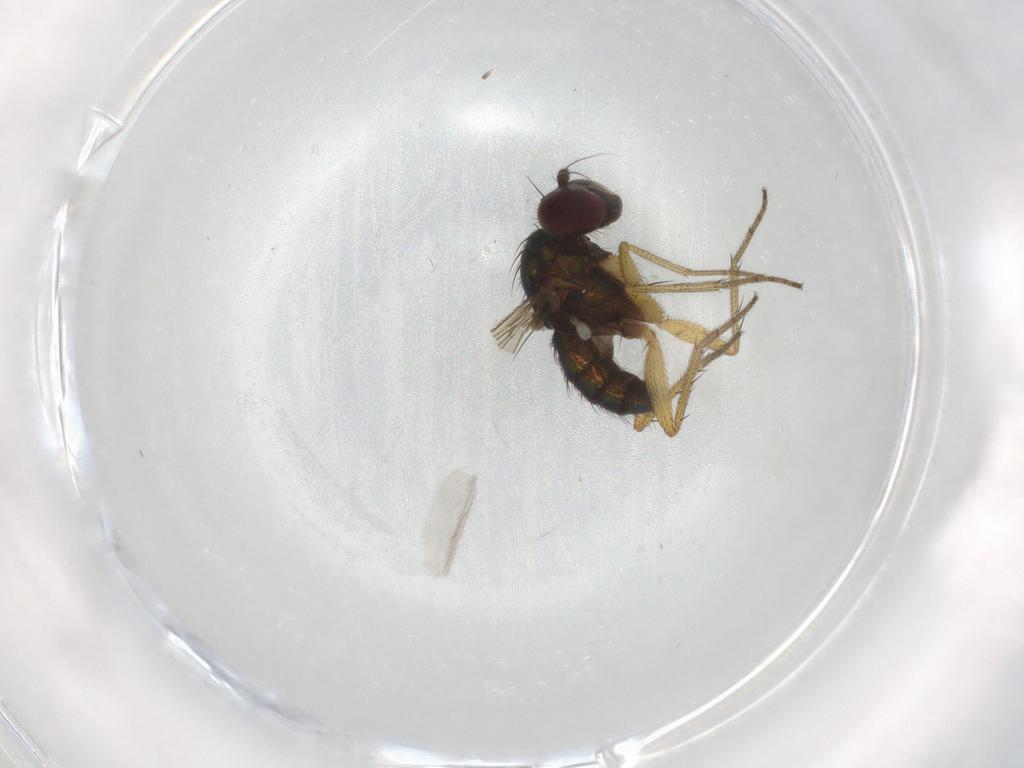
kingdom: Animalia
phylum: Arthropoda
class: Insecta
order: Diptera
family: Dolichopodidae
